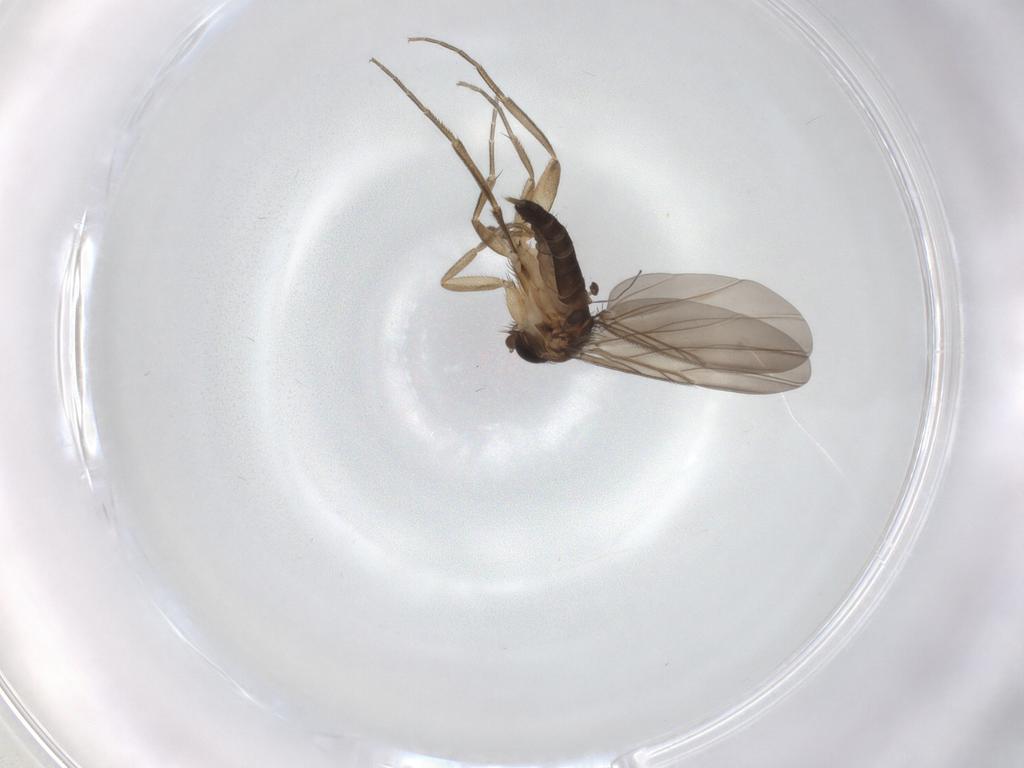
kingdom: Animalia
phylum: Arthropoda
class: Insecta
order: Diptera
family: Phoridae
